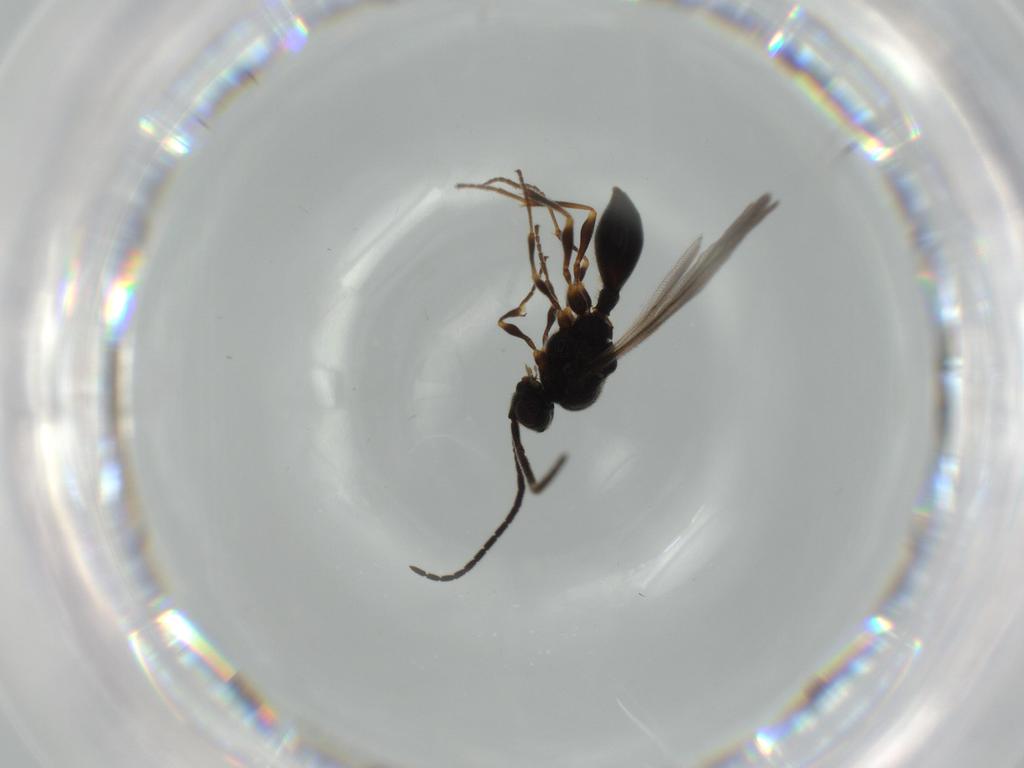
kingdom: Animalia
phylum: Arthropoda
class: Insecta
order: Hymenoptera
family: Diapriidae
